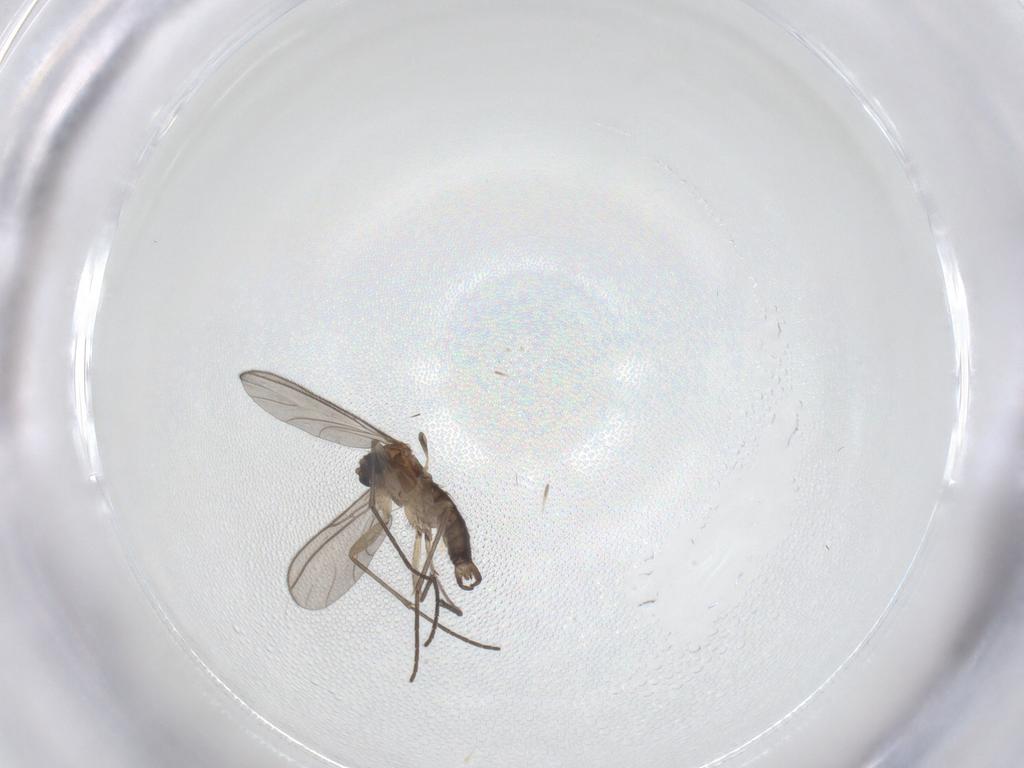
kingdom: Animalia
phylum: Arthropoda
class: Insecta
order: Diptera
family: Sciaridae
